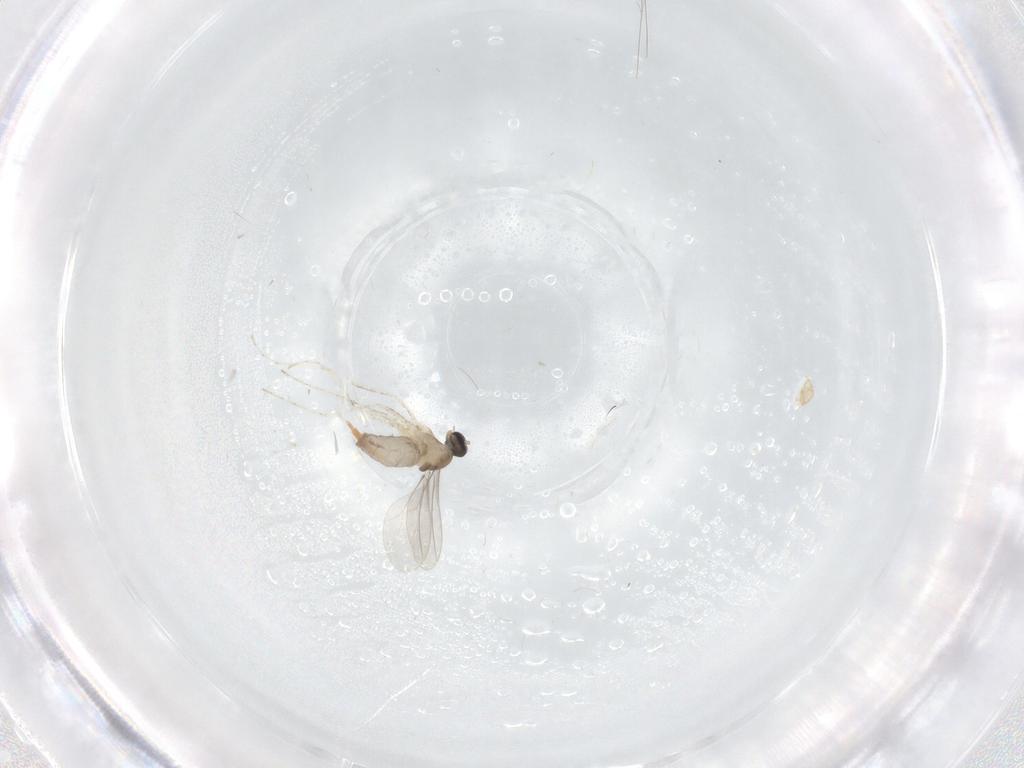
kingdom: Animalia
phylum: Arthropoda
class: Insecta
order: Diptera
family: Cecidomyiidae
